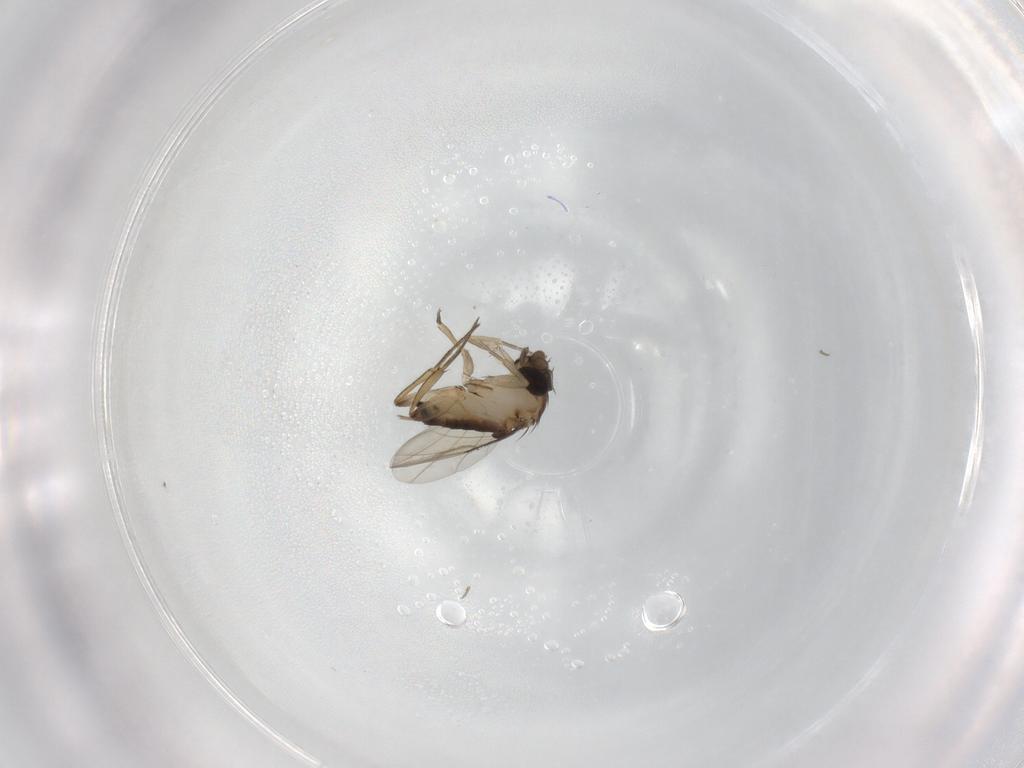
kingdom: Animalia
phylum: Arthropoda
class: Insecta
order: Diptera
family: Phoridae
